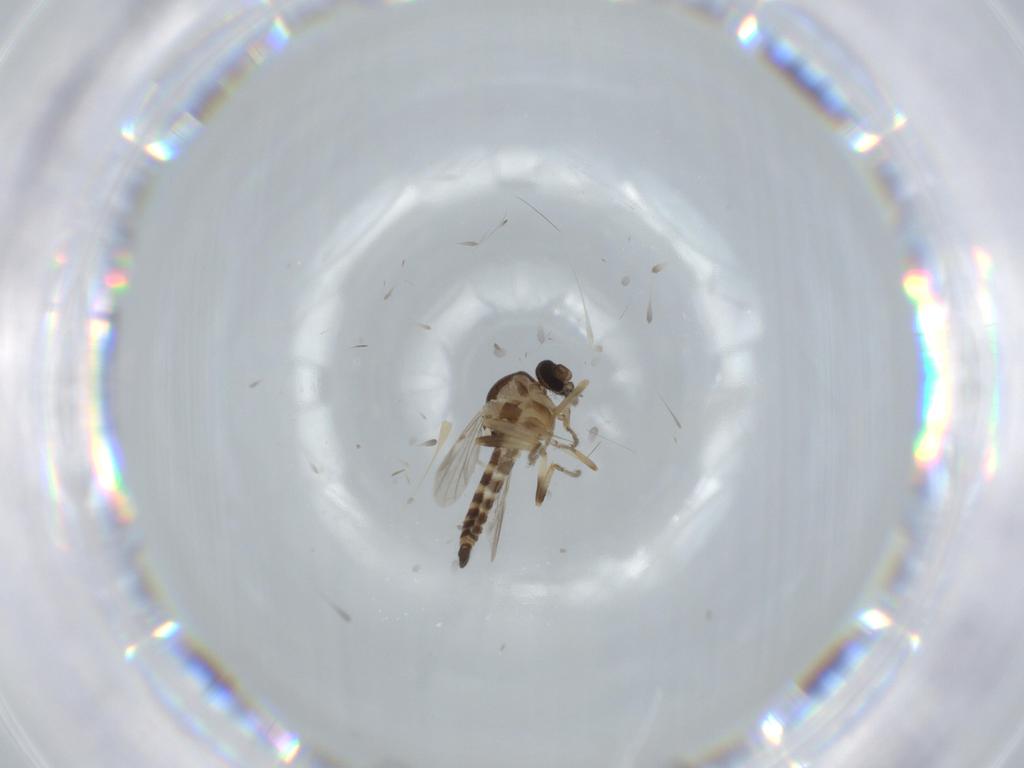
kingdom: Animalia
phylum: Arthropoda
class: Insecta
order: Diptera
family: Ceratopogonidae
